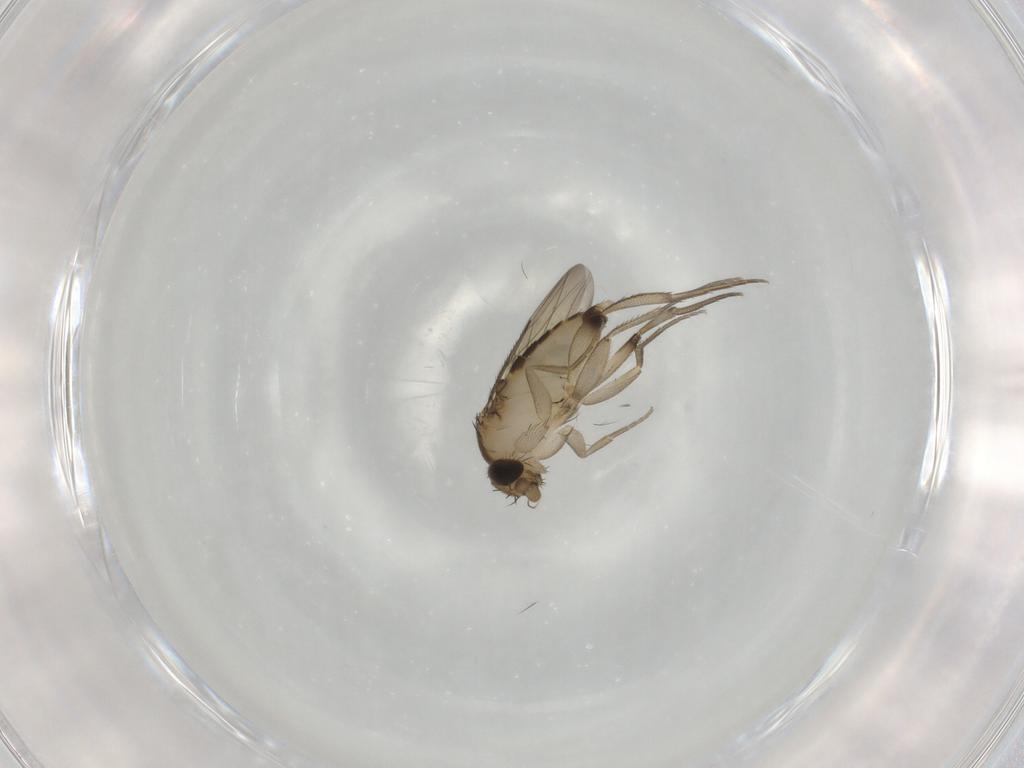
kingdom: Animalia
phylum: Arthropoda
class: Insecta
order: Diptera
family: Phoridae
